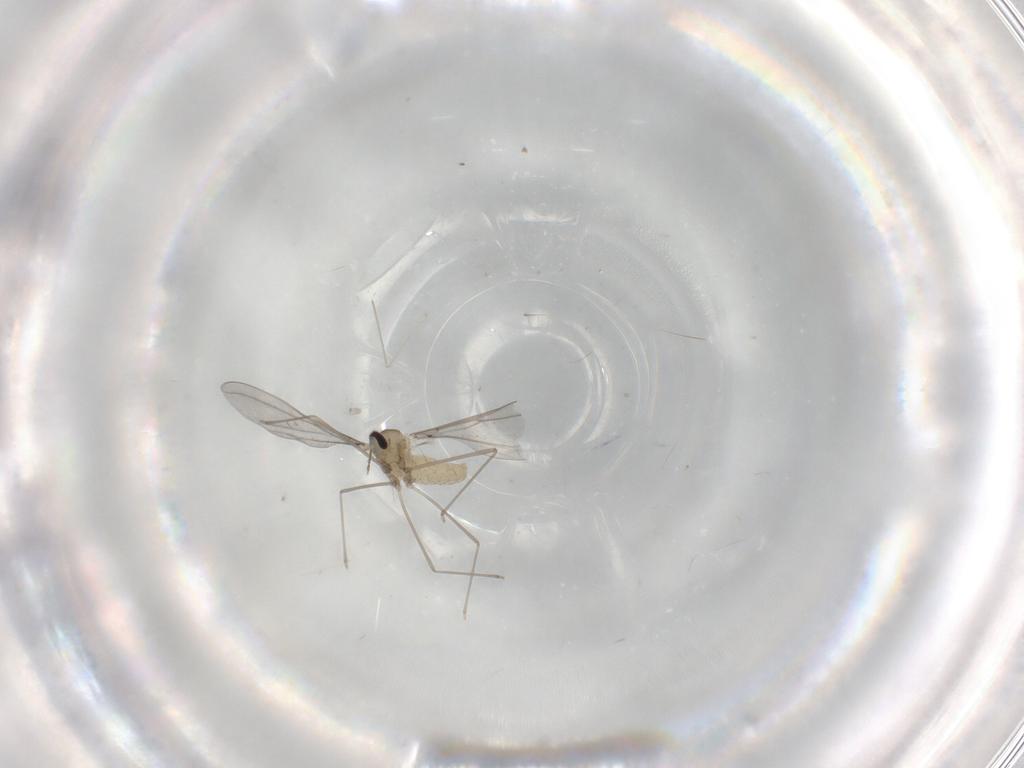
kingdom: Animalia
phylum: Arthropoda
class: Insecta
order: Diptera
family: Cecidomyiidae
